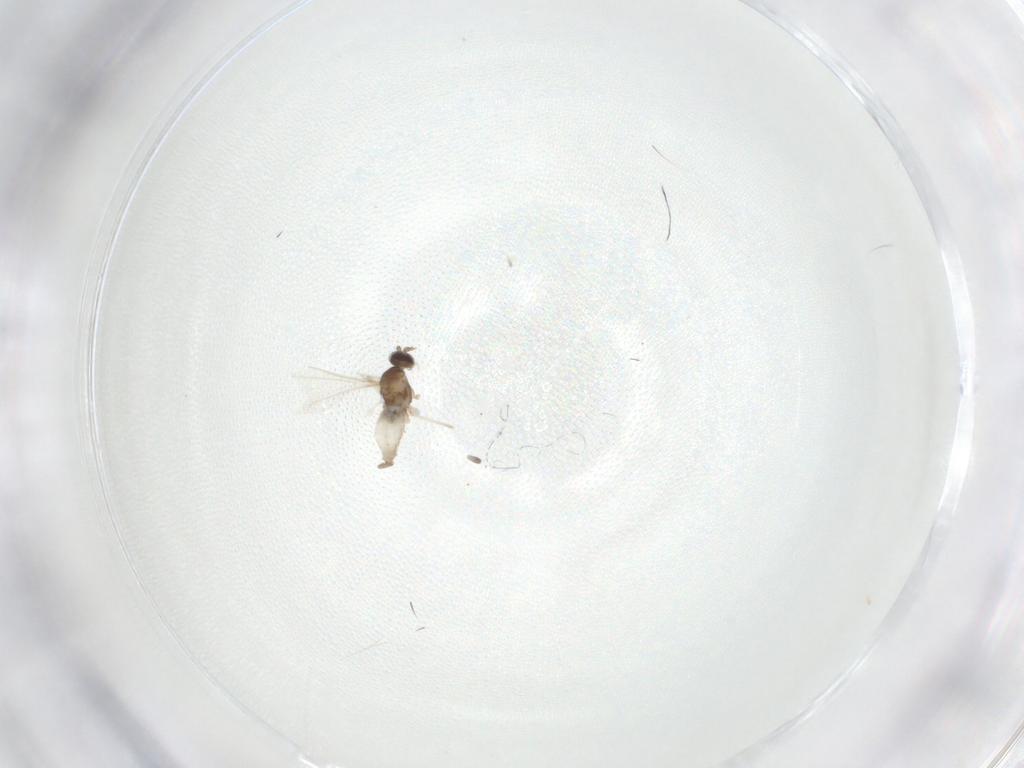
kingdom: Animalia
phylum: Arthropoda
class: Insecta
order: Diptera
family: Cecidomyiidae
